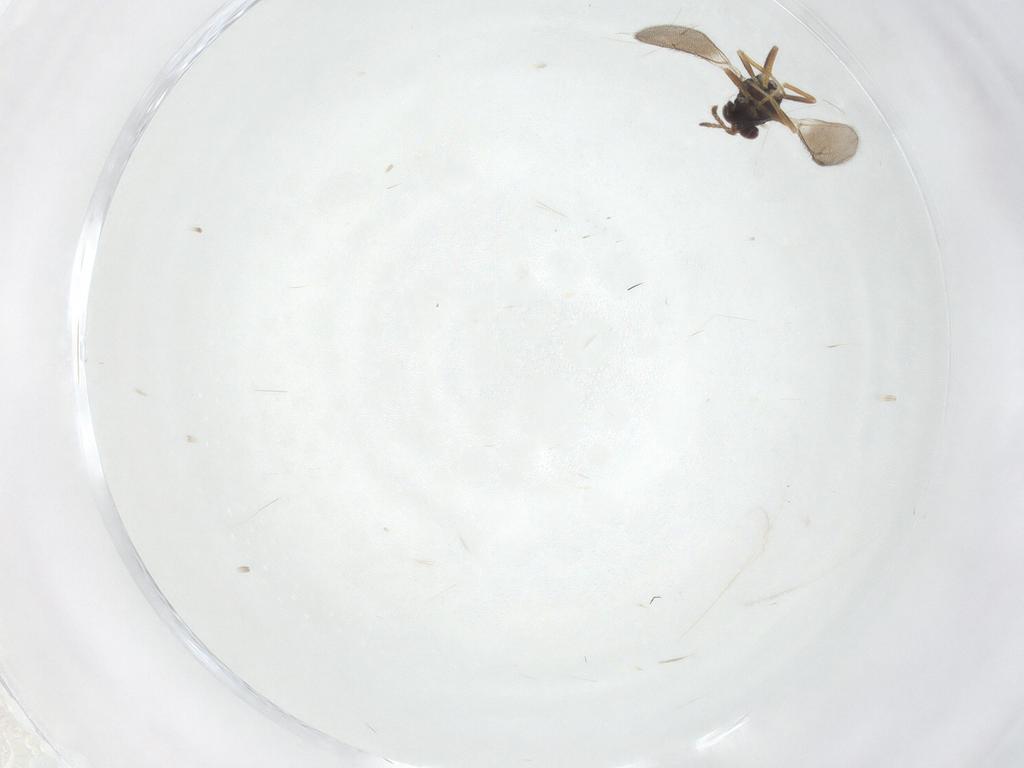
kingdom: Animalia
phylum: Arthropoda
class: Insecta
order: Hymenoptera
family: Eulophidae
